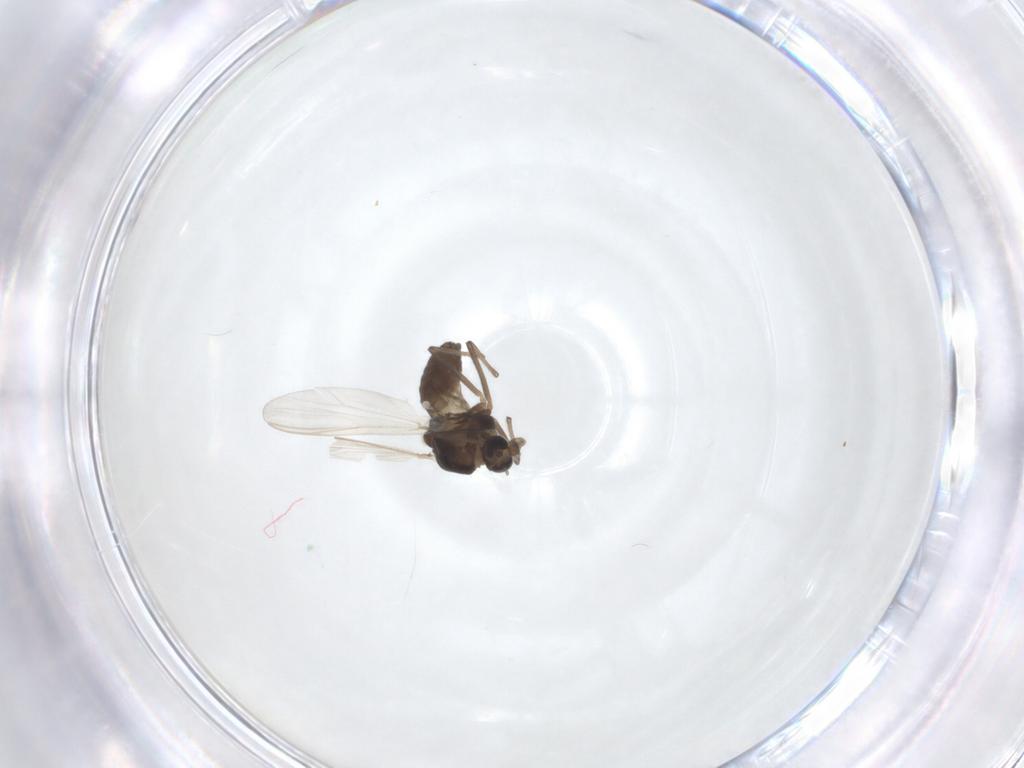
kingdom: Animalia
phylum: Arthropoda
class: Insecta
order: Diptera
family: Chironomidae
